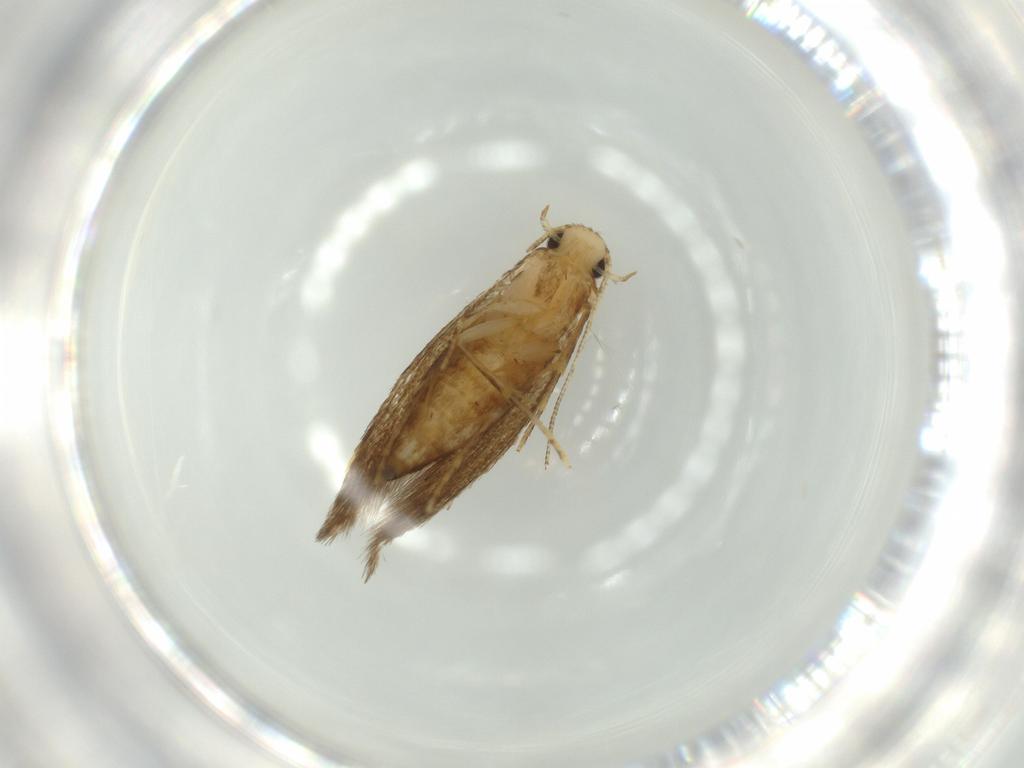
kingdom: Animalia
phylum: Arthropoda
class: Insecta
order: Lepidoptera
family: Tineidae
